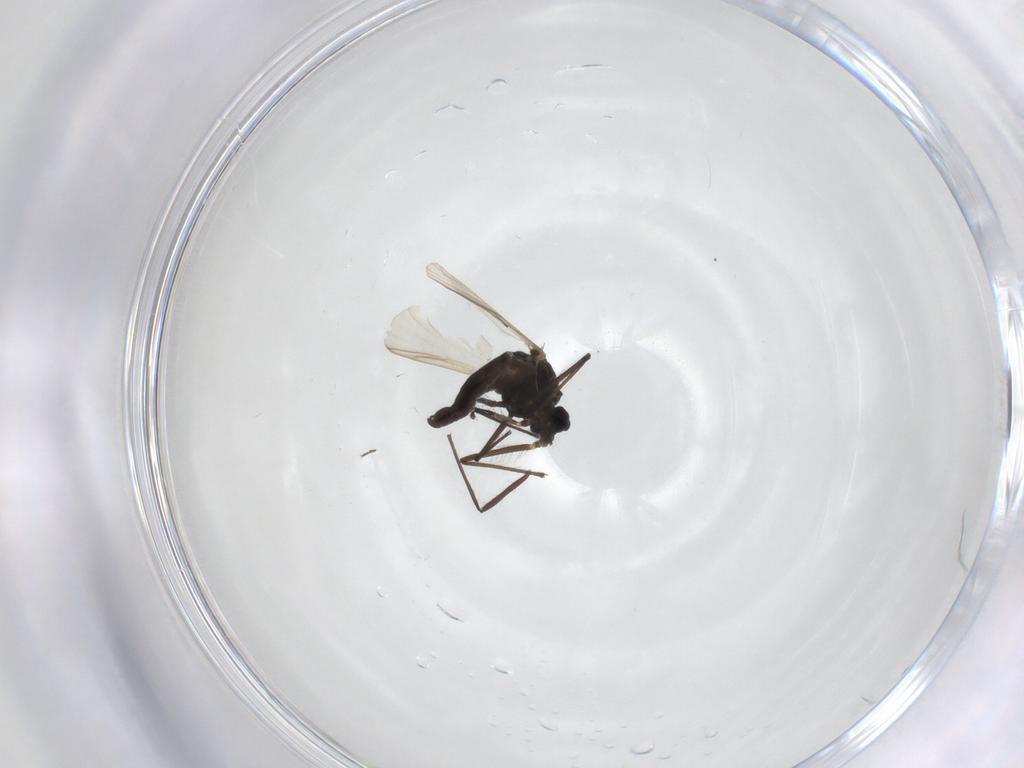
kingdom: Animalia
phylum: Arthropoda
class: Insecta
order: Diptera
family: Chironomidae
